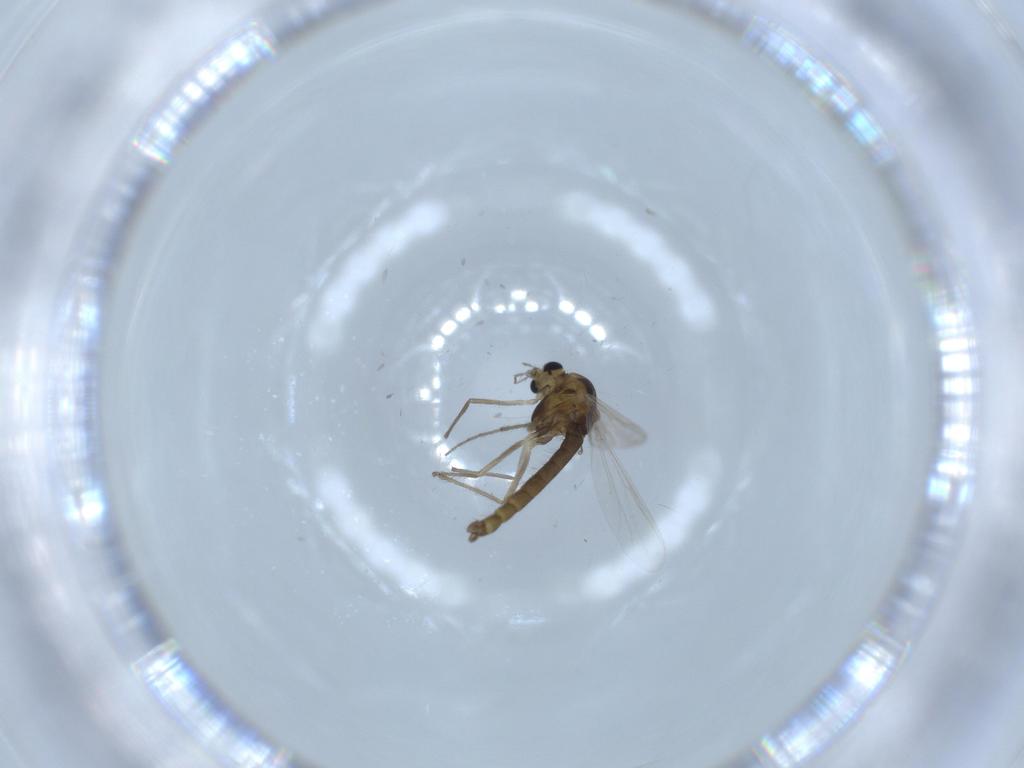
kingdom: Animalia
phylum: Arthropoda
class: Insecta
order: Diptera
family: Chironomidae
